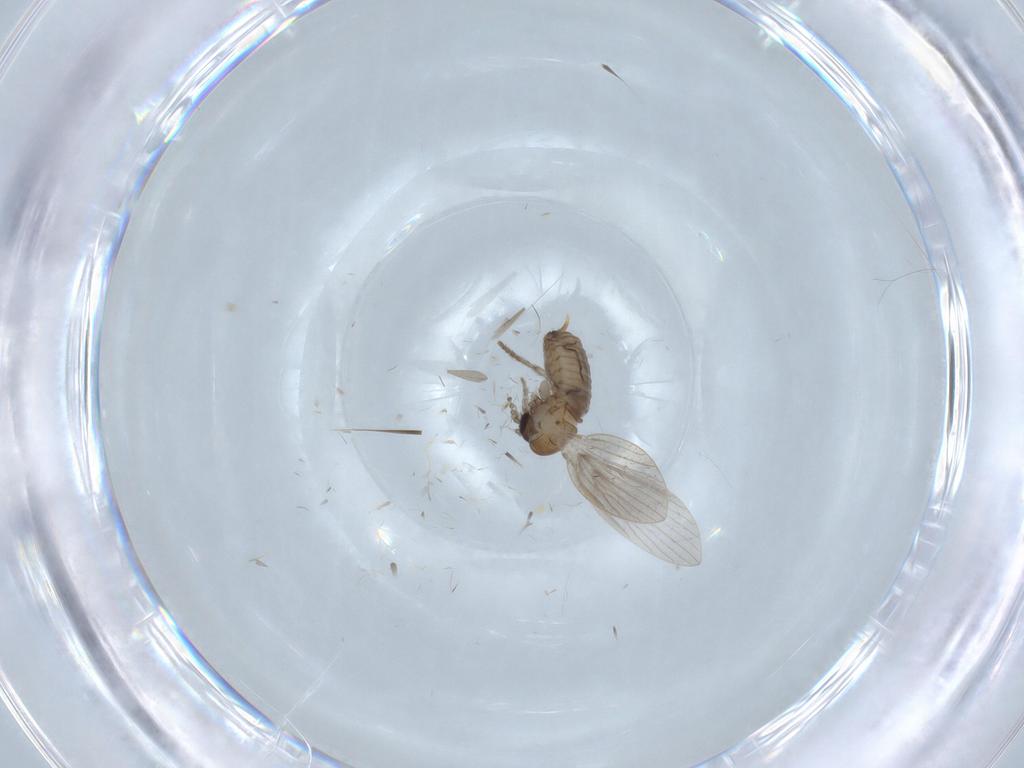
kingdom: Animalia
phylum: Arthropoda
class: Insecta
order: Diptera
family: Psychodidae
